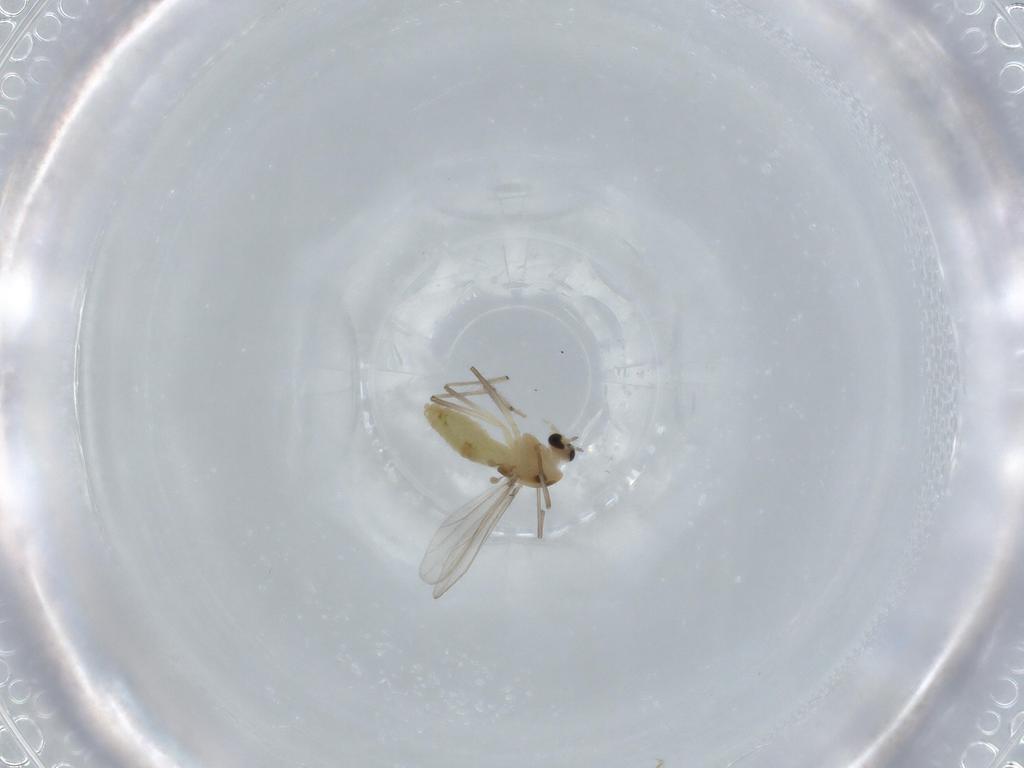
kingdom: Animalia
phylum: Arthropoda
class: Insecta
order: Diptera
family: Chironomidae
